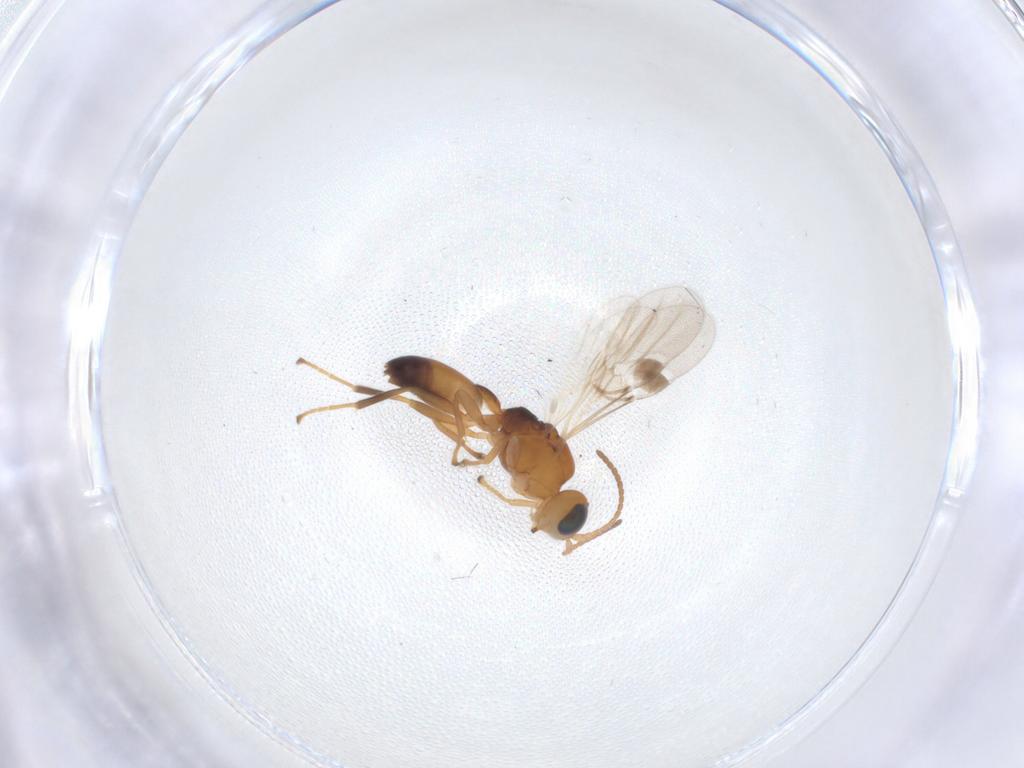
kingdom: Animalia
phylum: Arthropoda
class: Insecta
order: Hymenoptera
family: Braconidae
